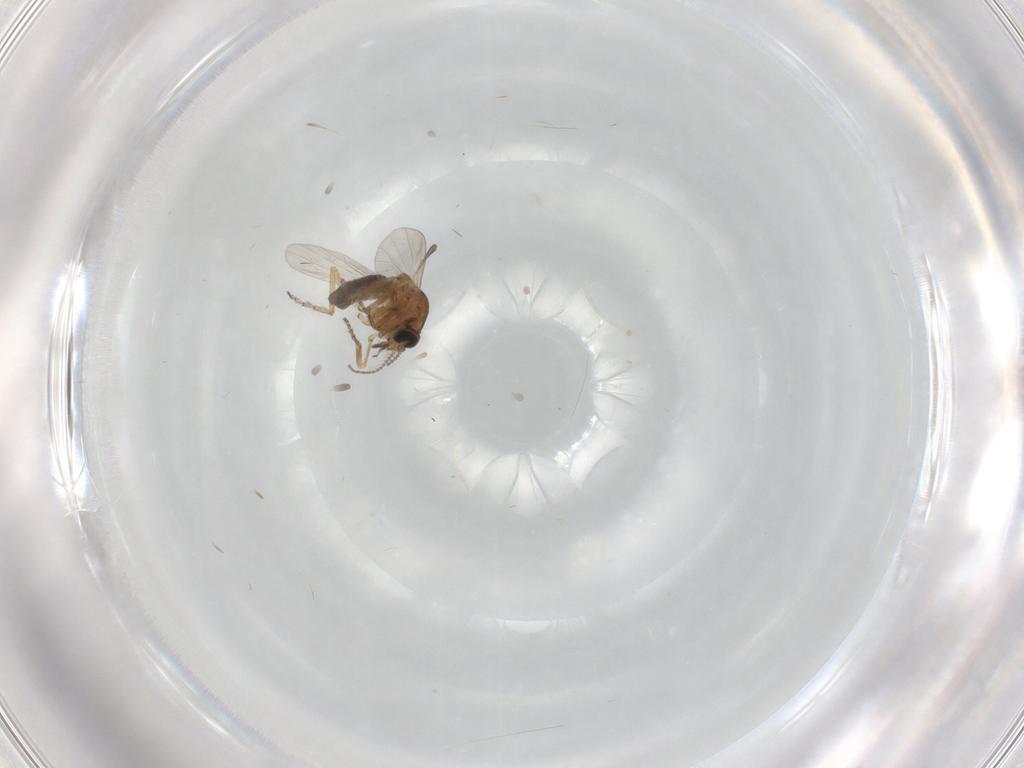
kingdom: Animalia
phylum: Arthropoda
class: Insecta
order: Diptera
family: Ceratopogonidae
